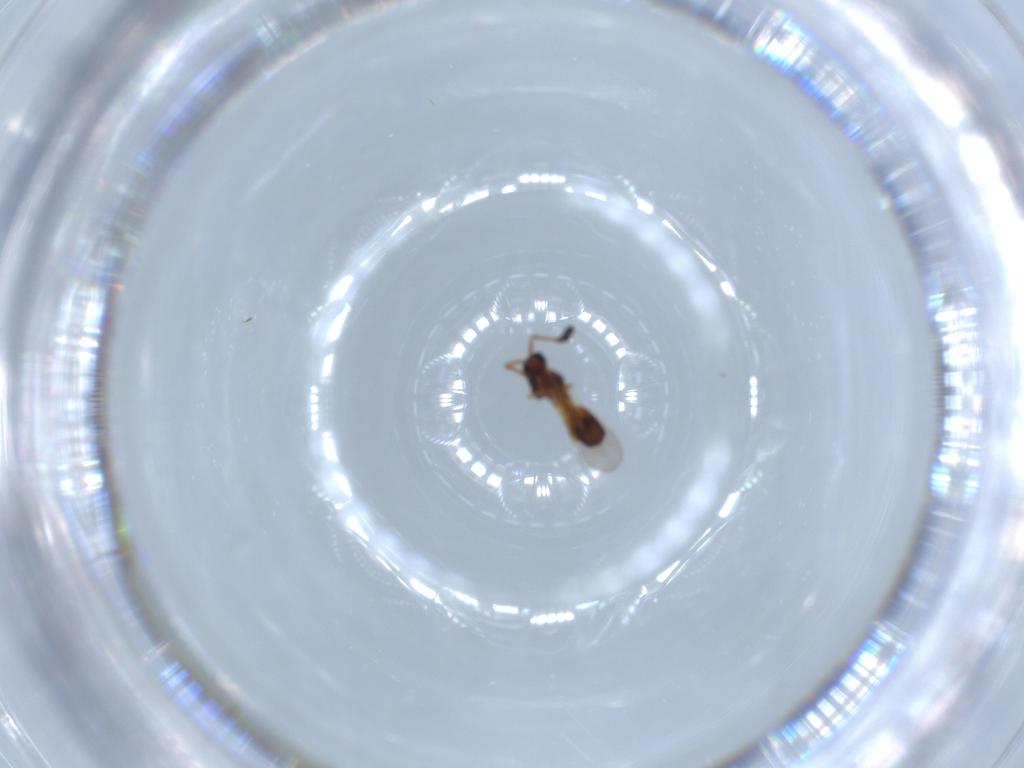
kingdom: Animalia
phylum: Arthropoda
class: Insecta
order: Hymenoptera
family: Diapriidae
